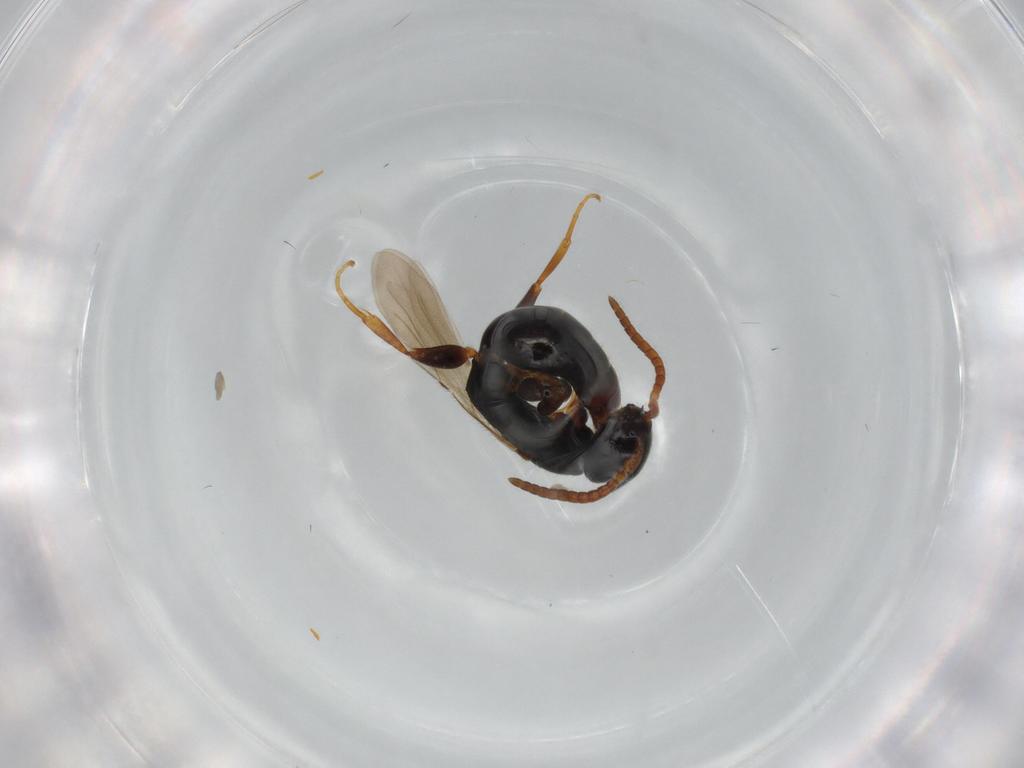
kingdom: Animalia
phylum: Arthropoda
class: Insecta
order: Hymenoptera
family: Bethylidae
